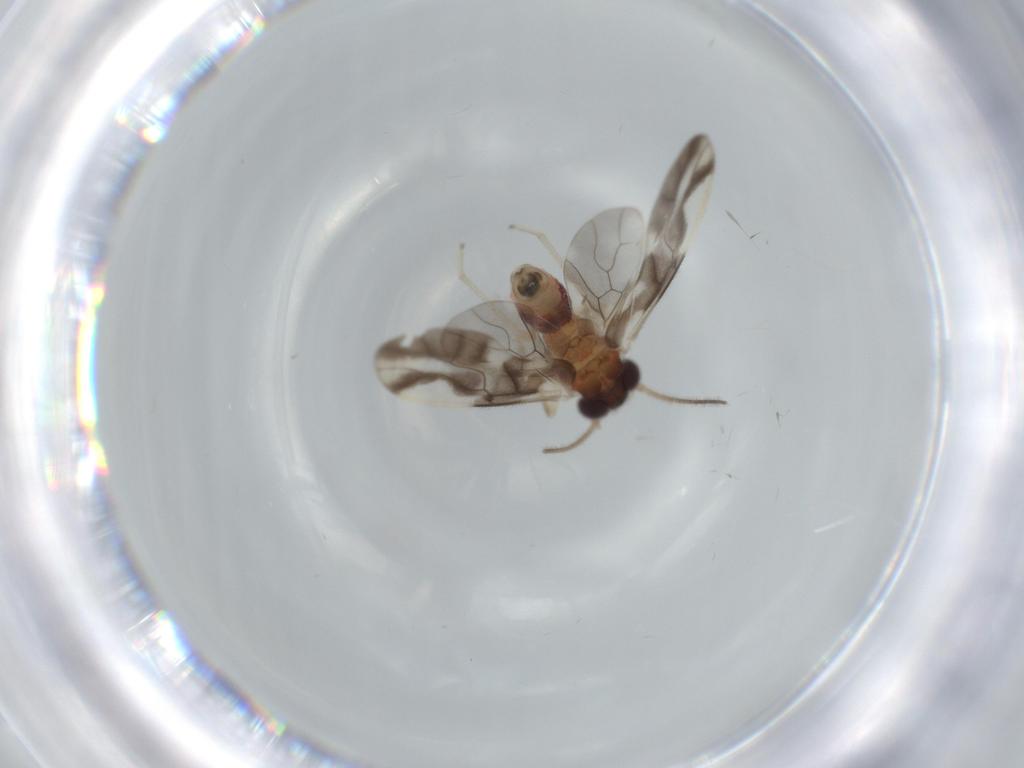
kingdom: Animalia
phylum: Arthropoda
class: Insecta
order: Psocodea
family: Caeciliusidae
